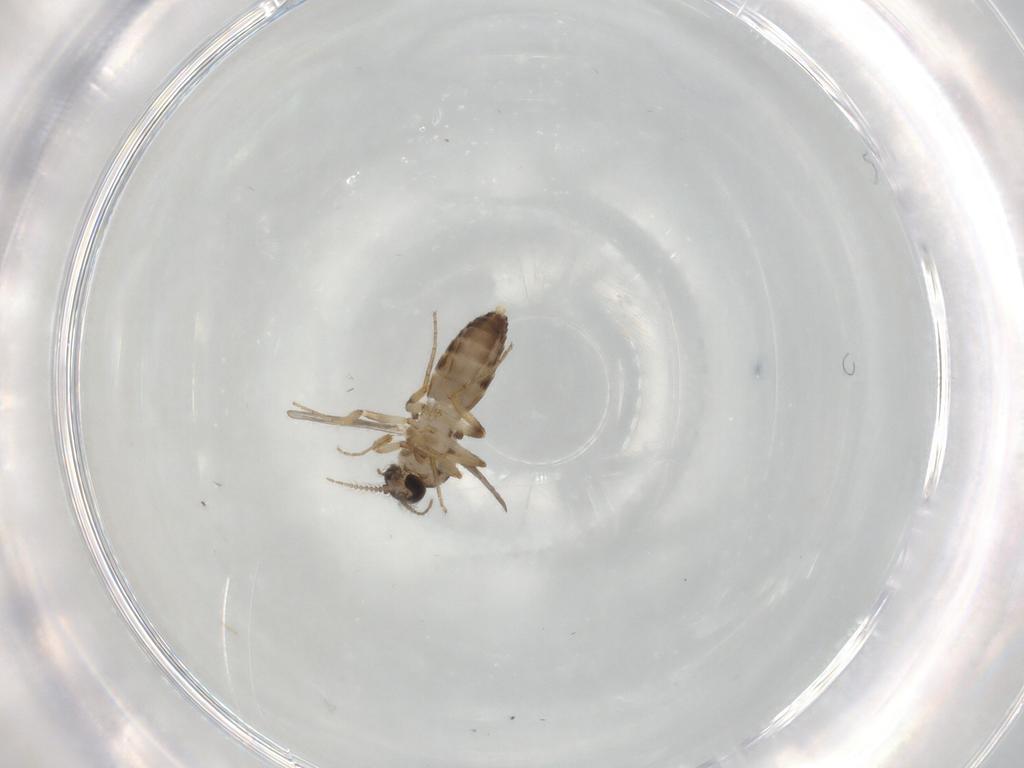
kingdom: Animalia
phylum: Arthropoda
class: Insecta
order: Diptera
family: Ceratopogonidae
